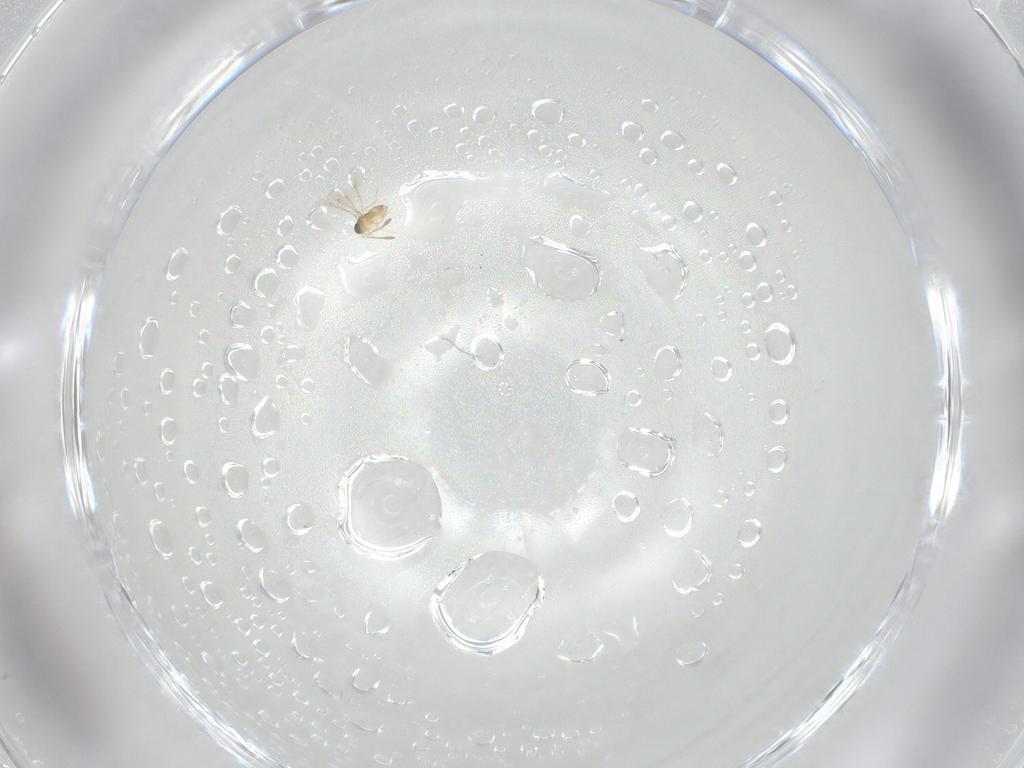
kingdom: Animalia
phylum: Arthropoda
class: Insecta
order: Hymenoptera
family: Mymaridae
